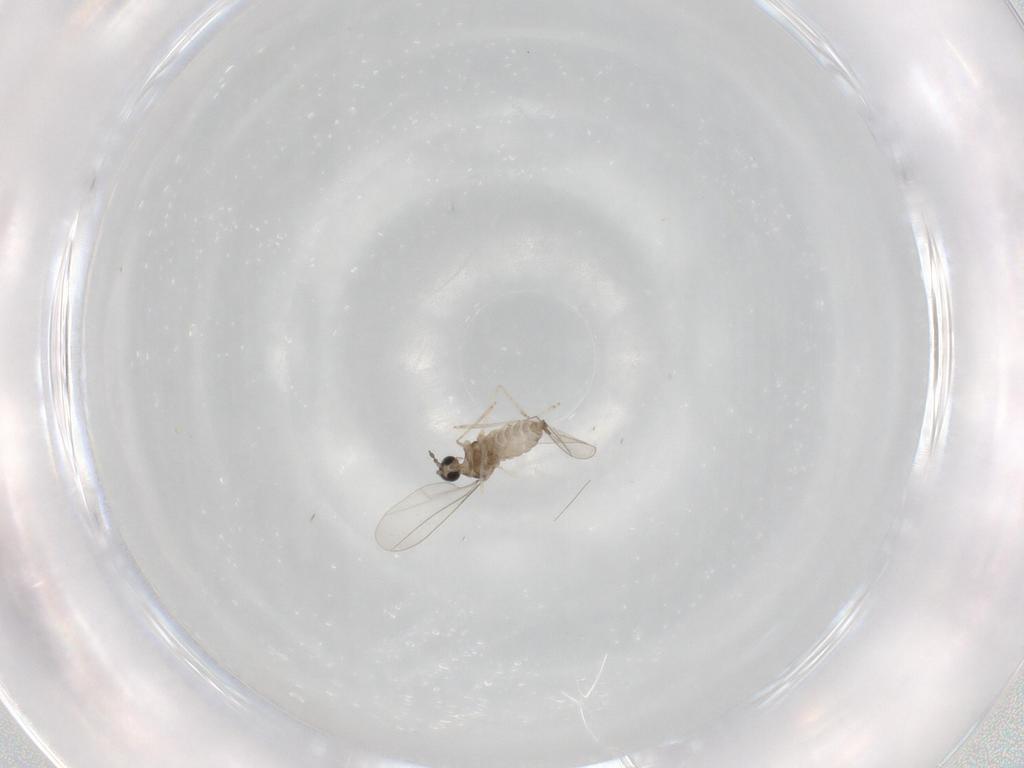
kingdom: Animalia
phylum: Arthropoda
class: Insecta
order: Diptera
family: Cecidomyiidae
